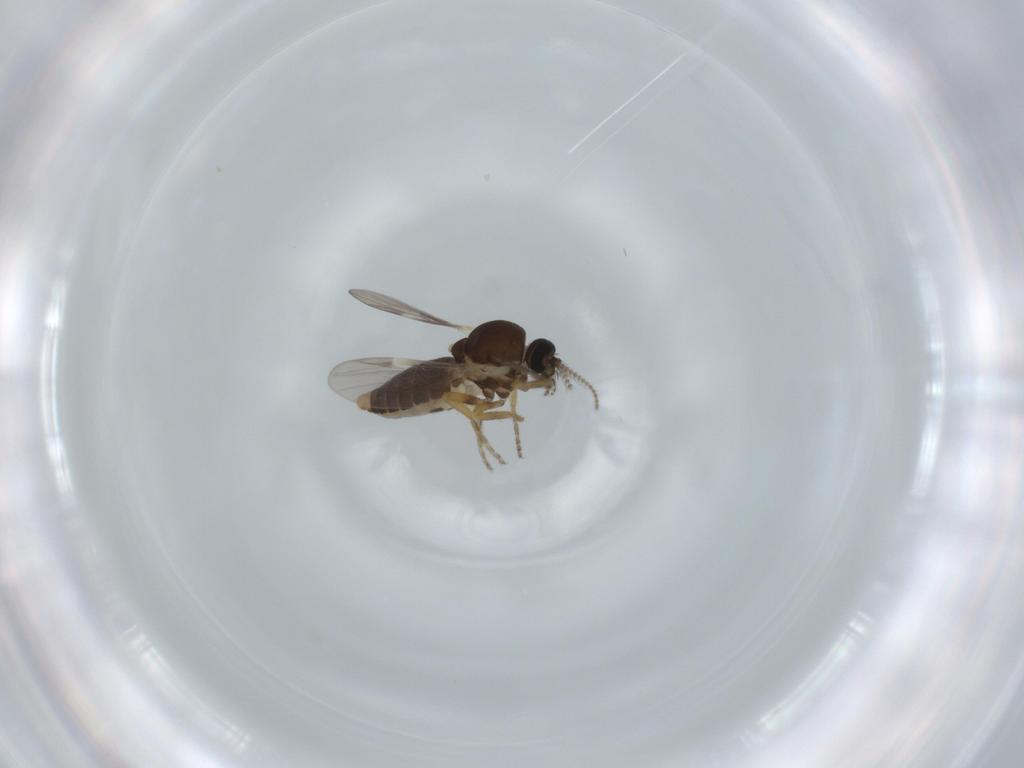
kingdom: Animalia
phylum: Arthropoda
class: Insecta
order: Diptera
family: Ceratopogonidae
